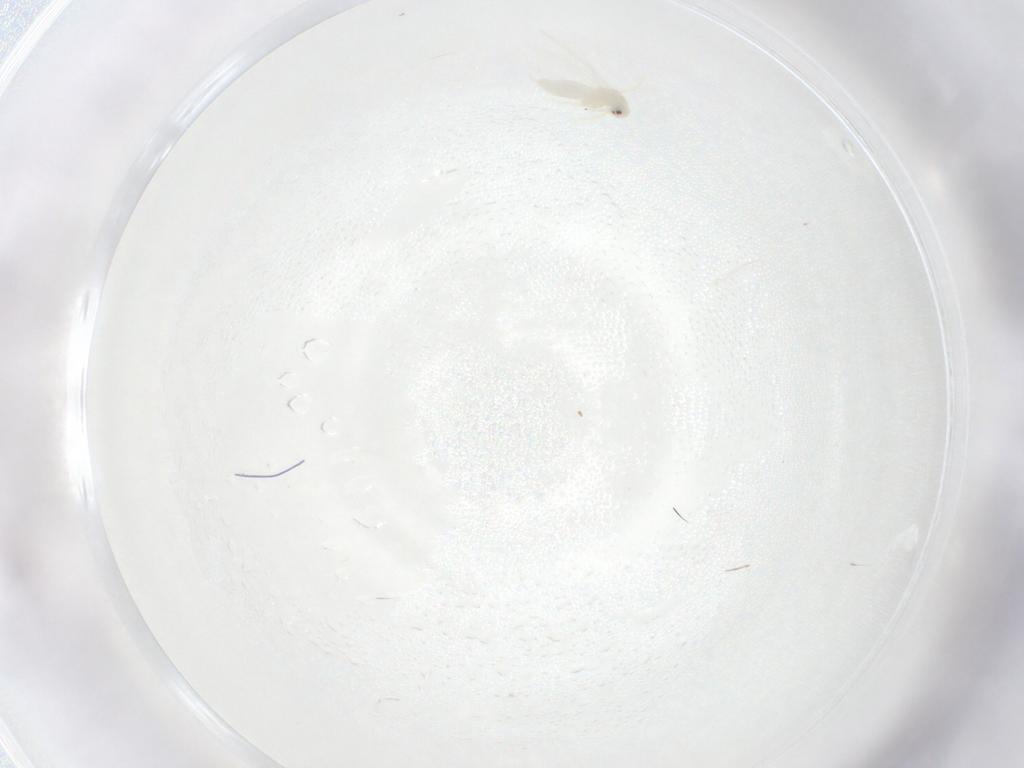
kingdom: Animalia
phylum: Arthropoda
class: Insecta
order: Hemiptera
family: Aleyrodidae
